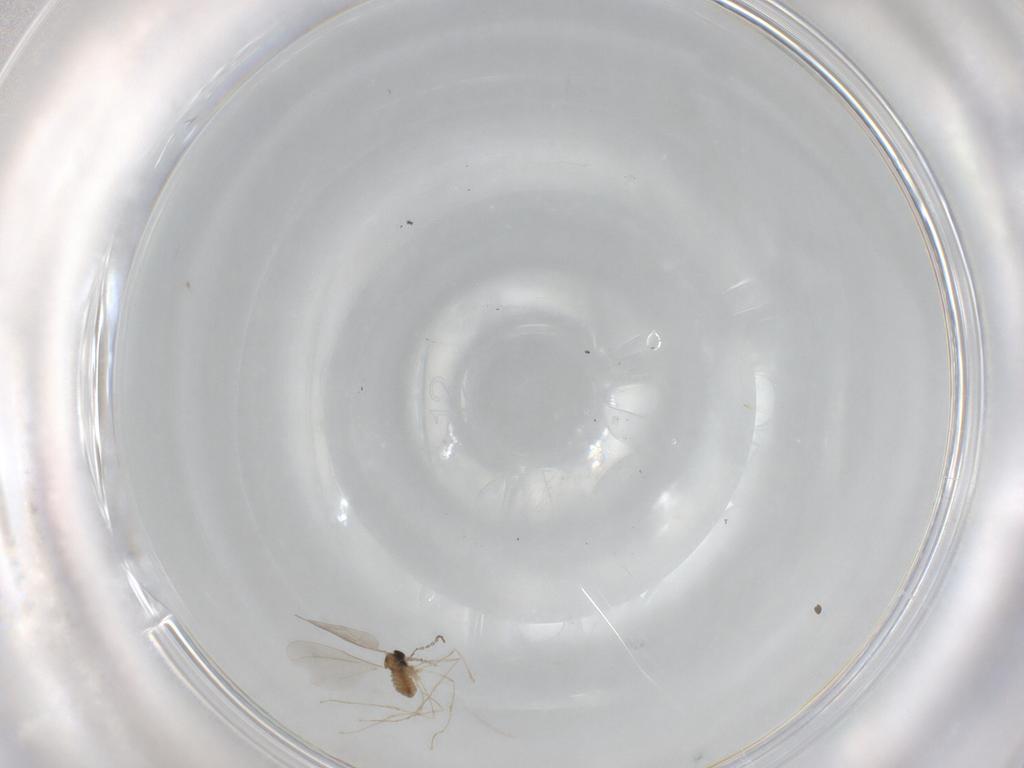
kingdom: Animalia
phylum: Arthropoda
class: Insecta
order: Diptera
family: Cecidomyiidae
